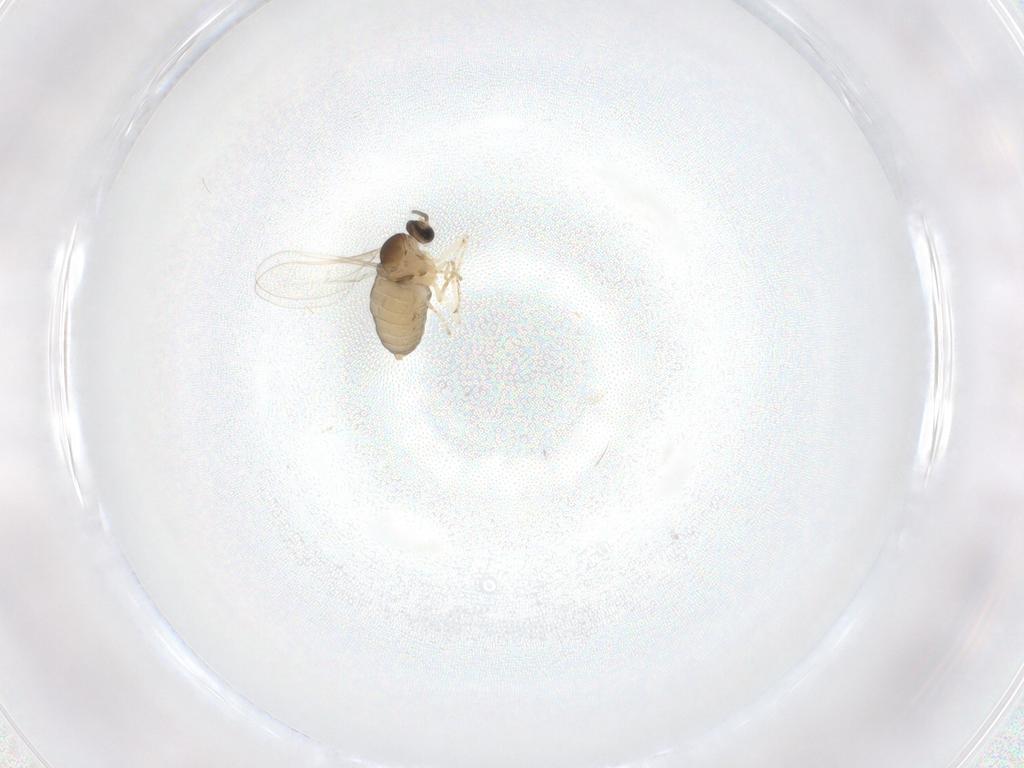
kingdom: Animalia
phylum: Arthropoda
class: Insecta
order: Diptera
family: Cecidomyiidae
